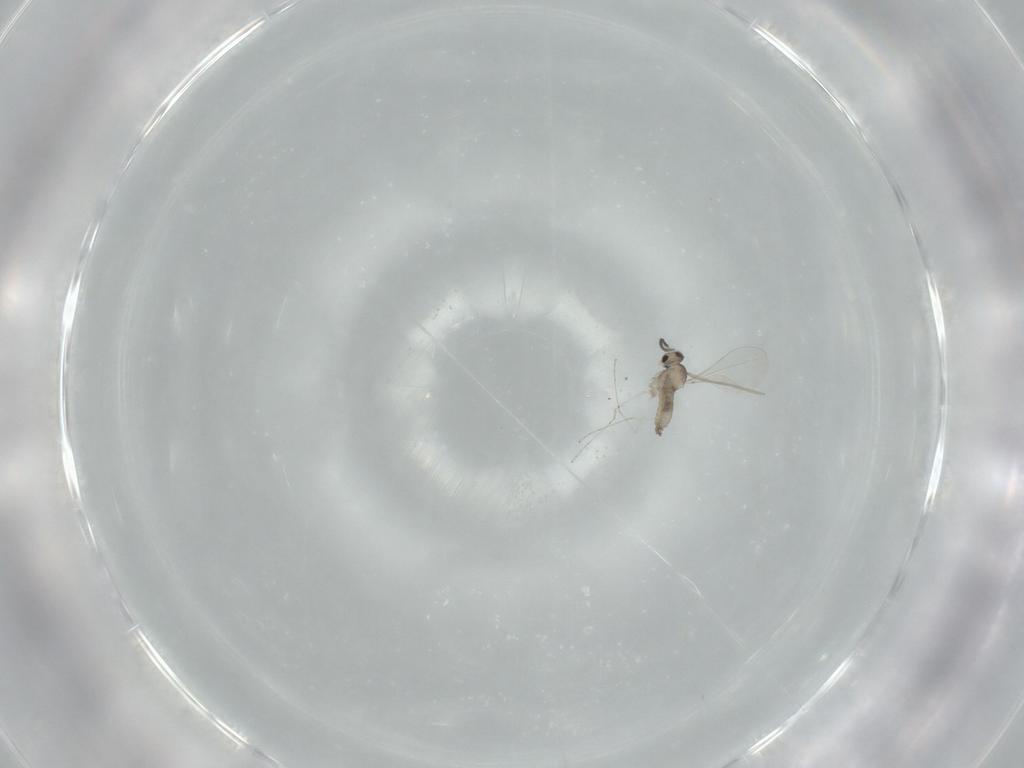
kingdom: Animalia
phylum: Arthropoda
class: Insecta
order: Diptera
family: Cecidomyiidae
